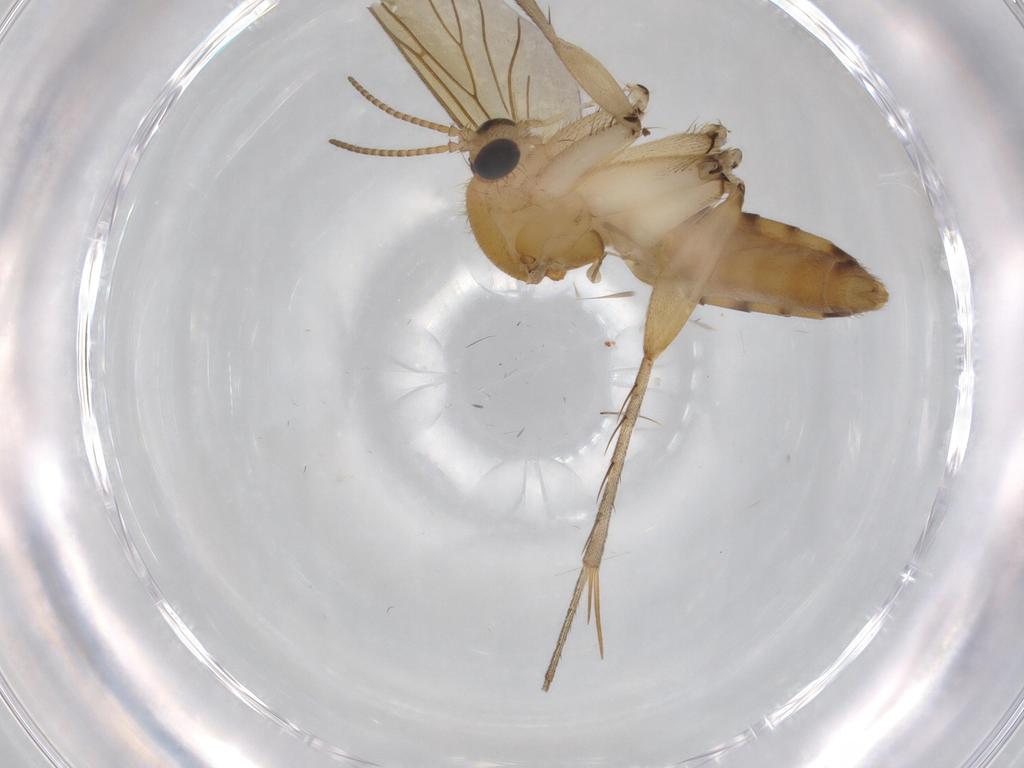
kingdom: Animalia
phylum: Arthropoda
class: Insecta
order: Diptera
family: Mycetophilidae
